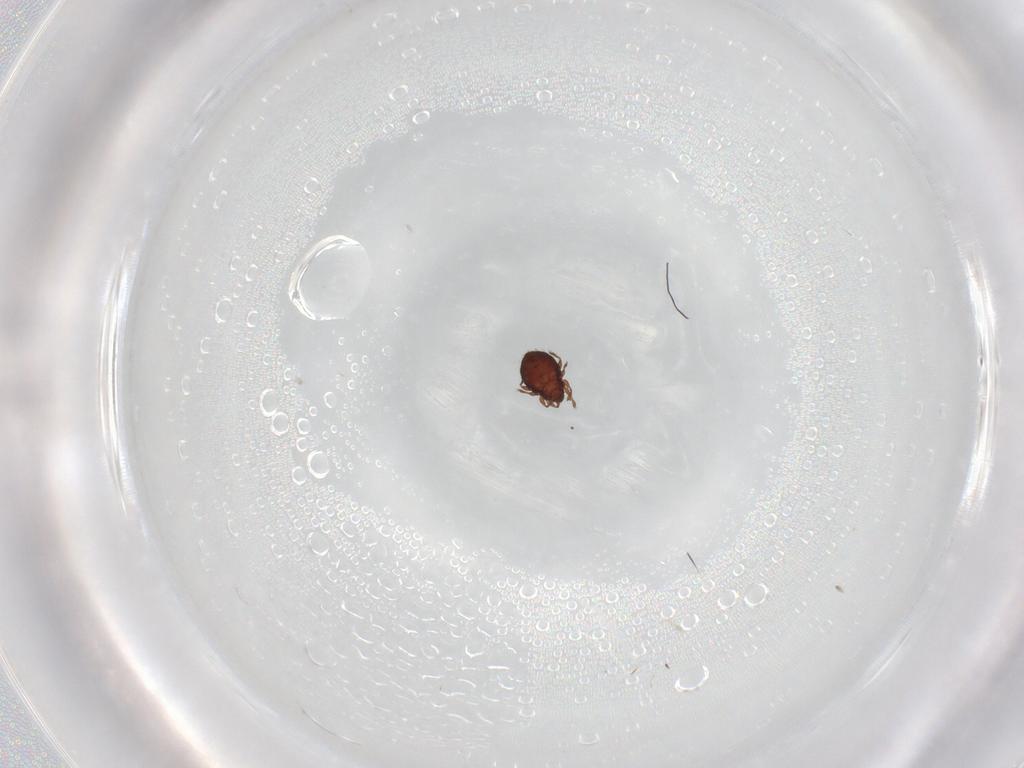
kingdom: Animalia
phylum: Arthropoda
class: Arachnida
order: Sarcoptiformes
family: Scheloribatidae
